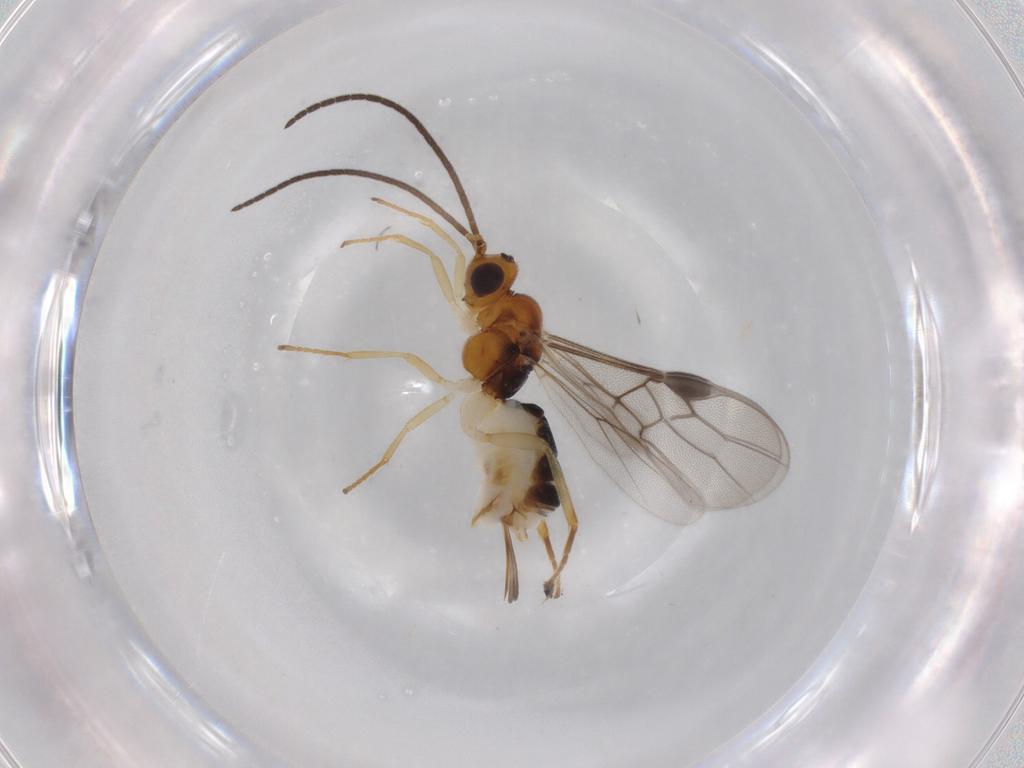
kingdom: Animalia
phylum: Arthropoda
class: Insecta
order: Hymenoptera
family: Braconidae
